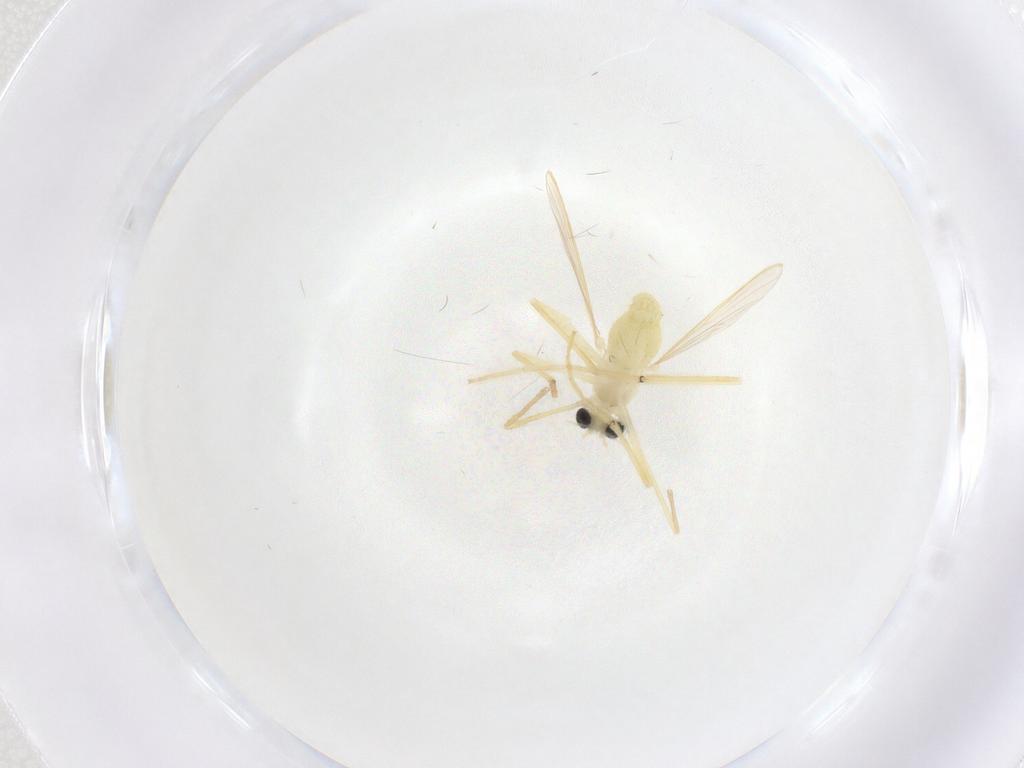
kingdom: Animalia
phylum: Arthropoda
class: Insecta
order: Diptera
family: Chironomidae
